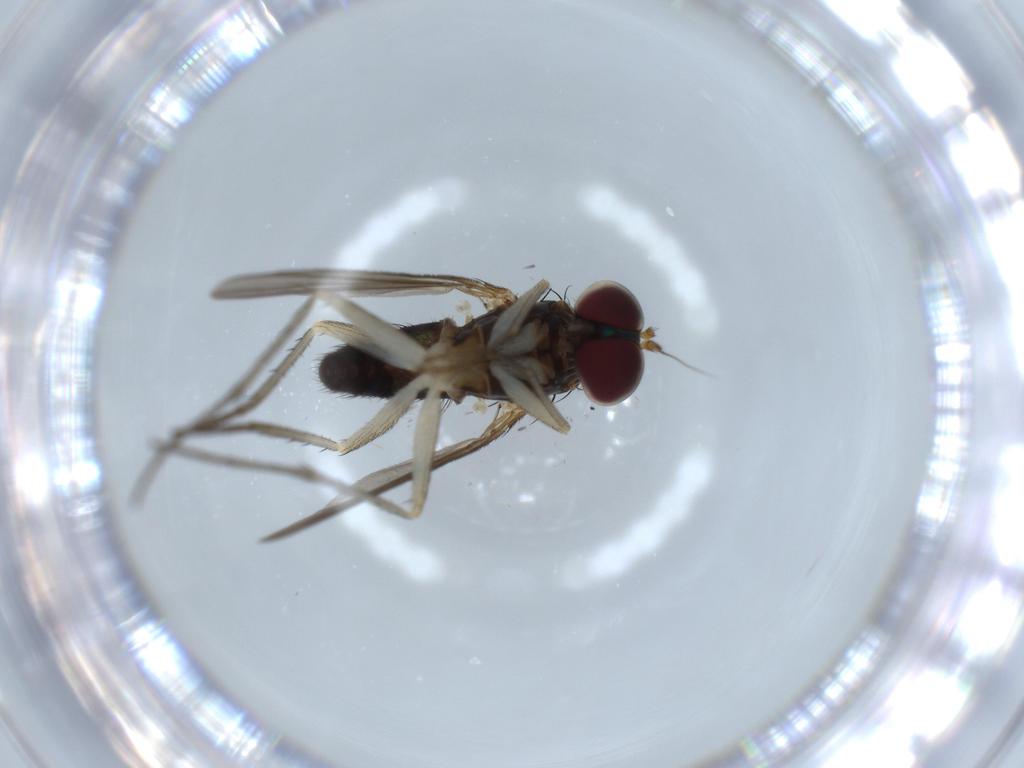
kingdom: Animalia
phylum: Arthropoda
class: Insecta
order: Diptera
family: Dolichopodidae
